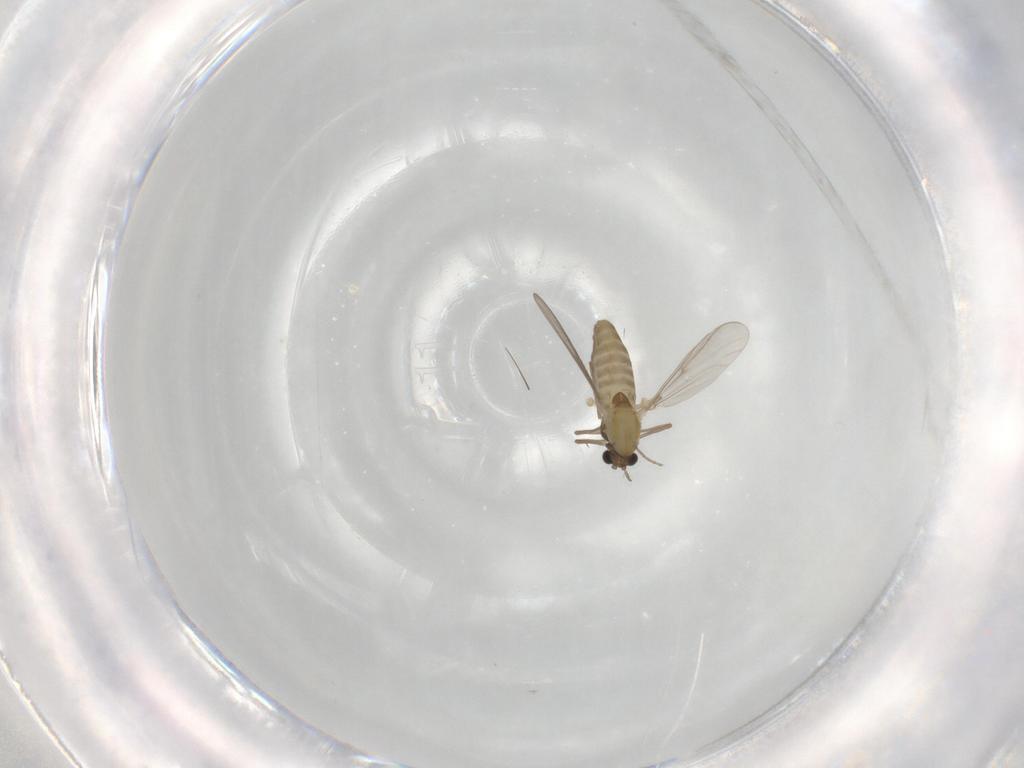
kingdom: Animalia
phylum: Arthropoda
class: Insecta
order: Diptera
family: Chironomidae
